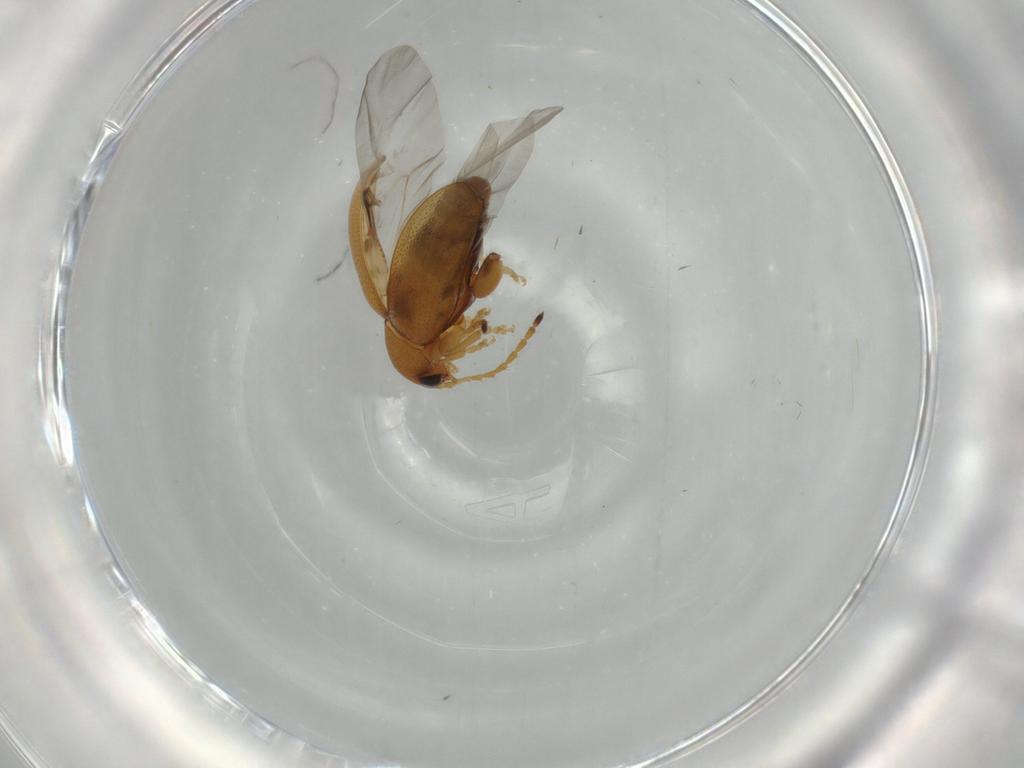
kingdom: Animalia
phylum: Arthropoda
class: Insecta
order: Coleoptera
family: Chrysomelidae
